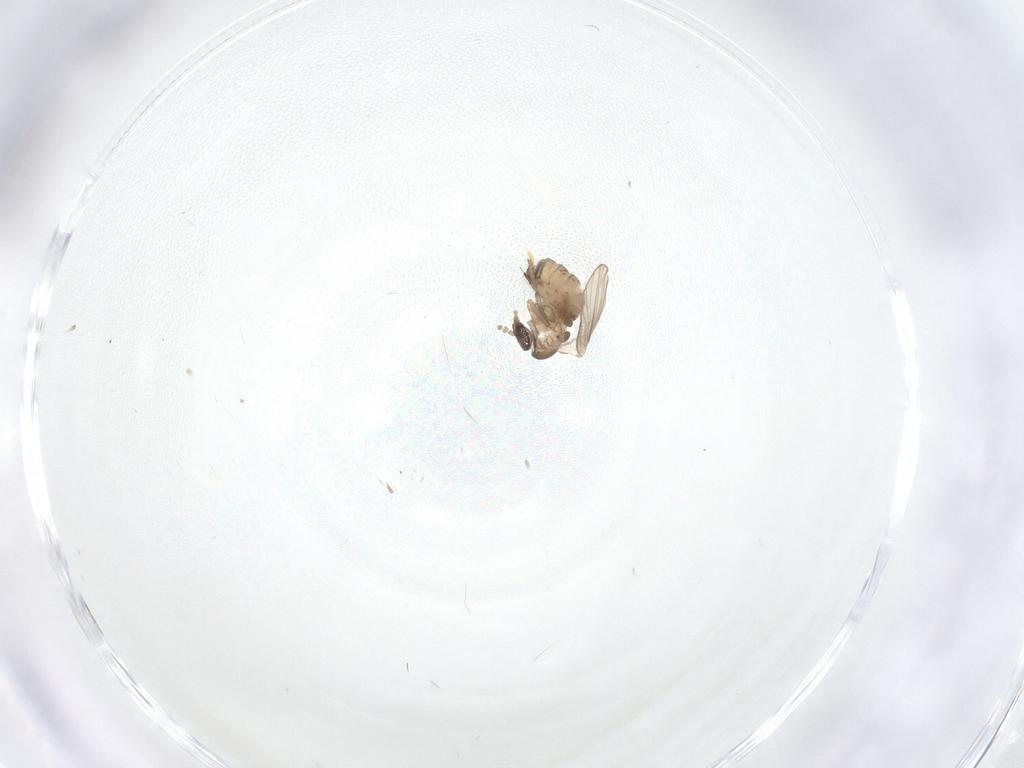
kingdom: Animalia
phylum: Arthropoda
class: Insecta
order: Diptera
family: Psychodidae
